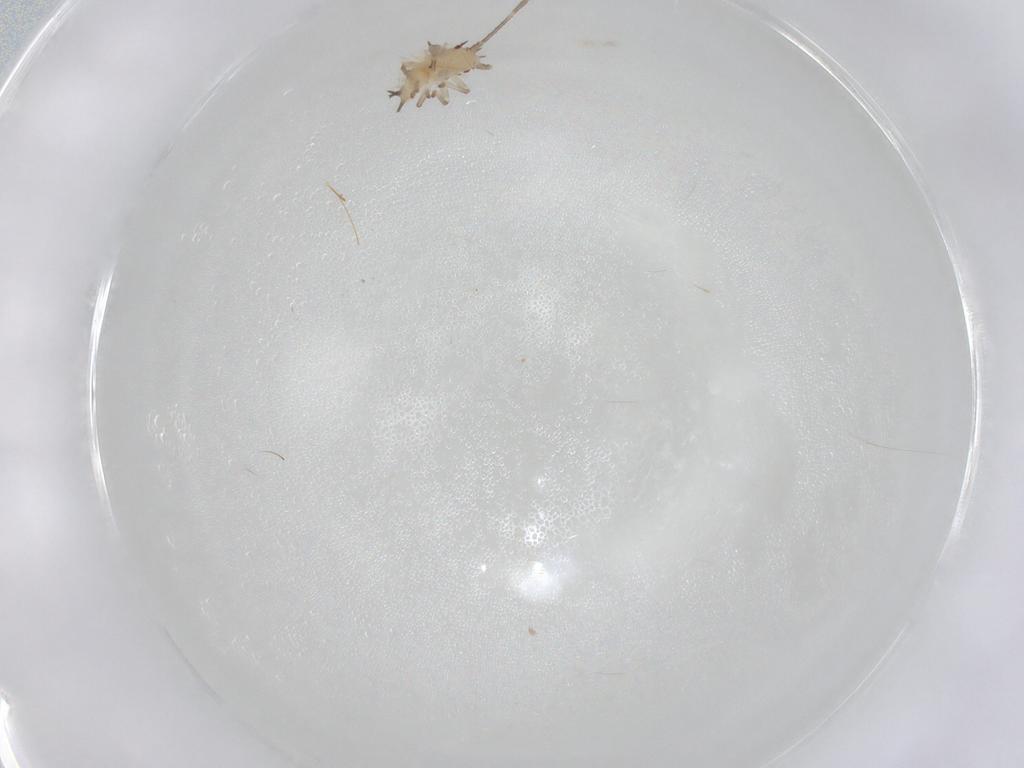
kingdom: Animalia
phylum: Arthropoda
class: Insecta
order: Hemiptera
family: Tingidae
